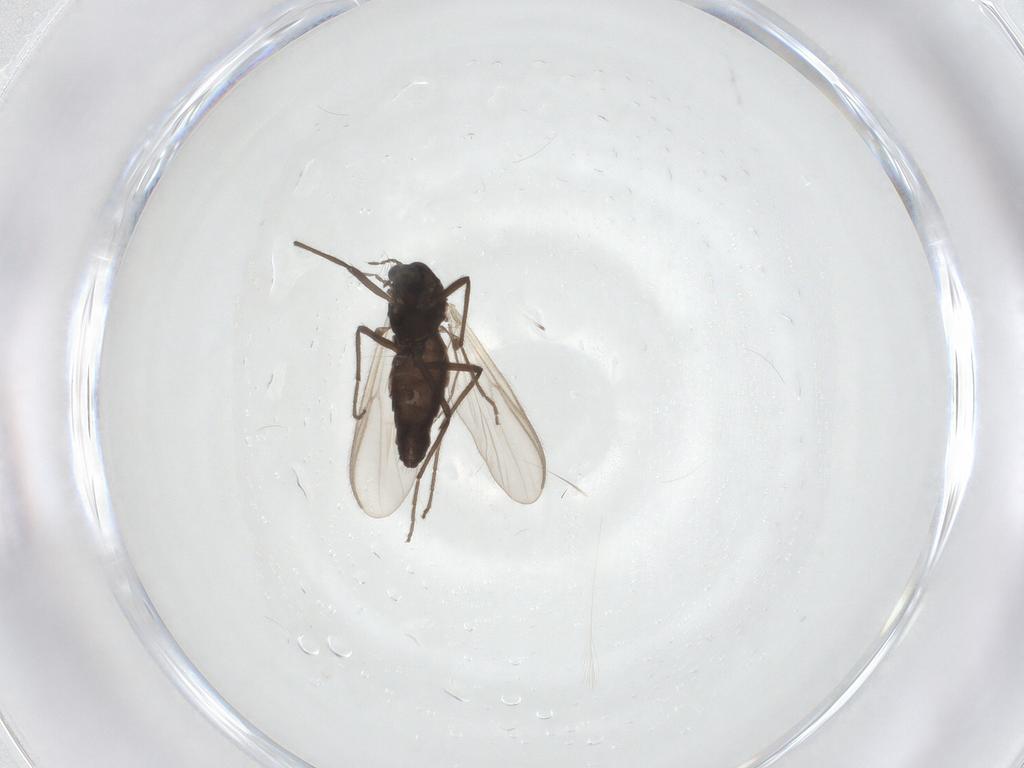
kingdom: Animalia
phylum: Arthropoda
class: Insecta
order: Diptera
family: Chironomidae
